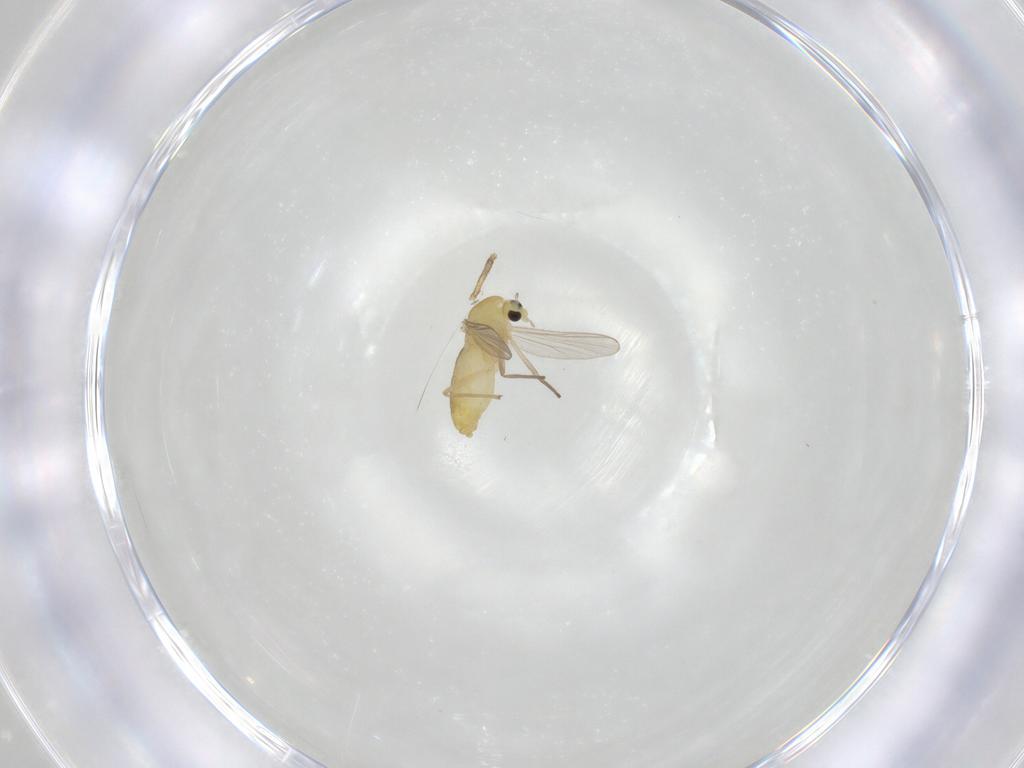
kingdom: Animalia
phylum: Arthropoda
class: Insecta
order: Diptera
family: Chironomidae
